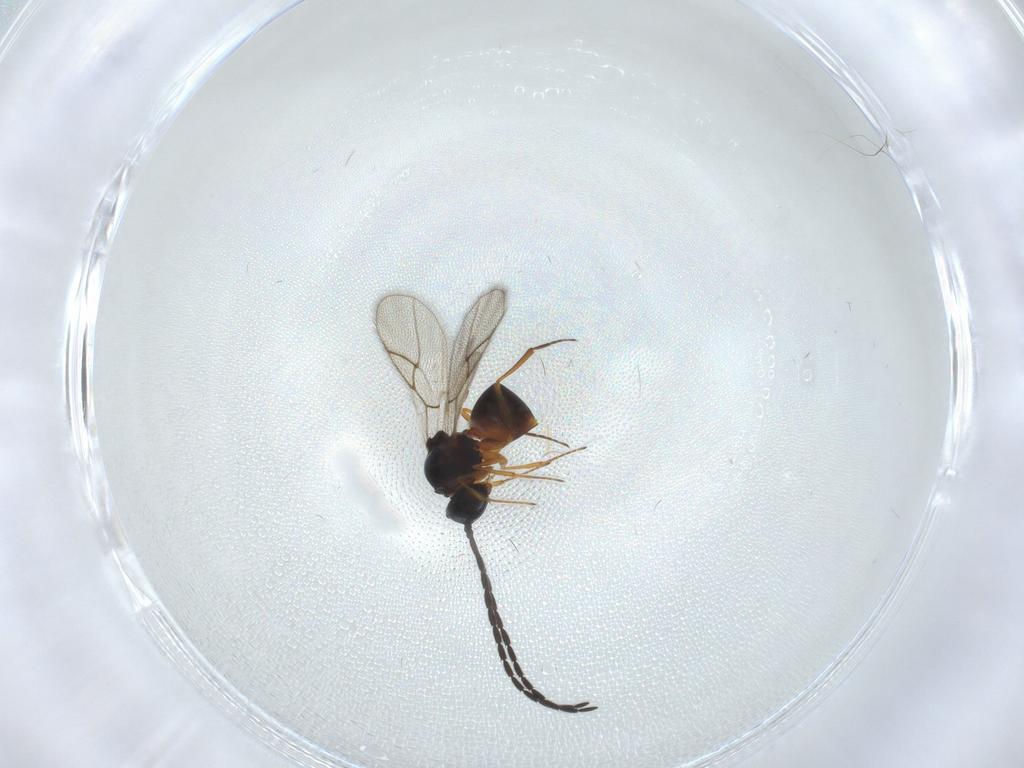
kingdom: Animalia
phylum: Arthropoda
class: Insecta
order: Hymenoptera
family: Figitidae
